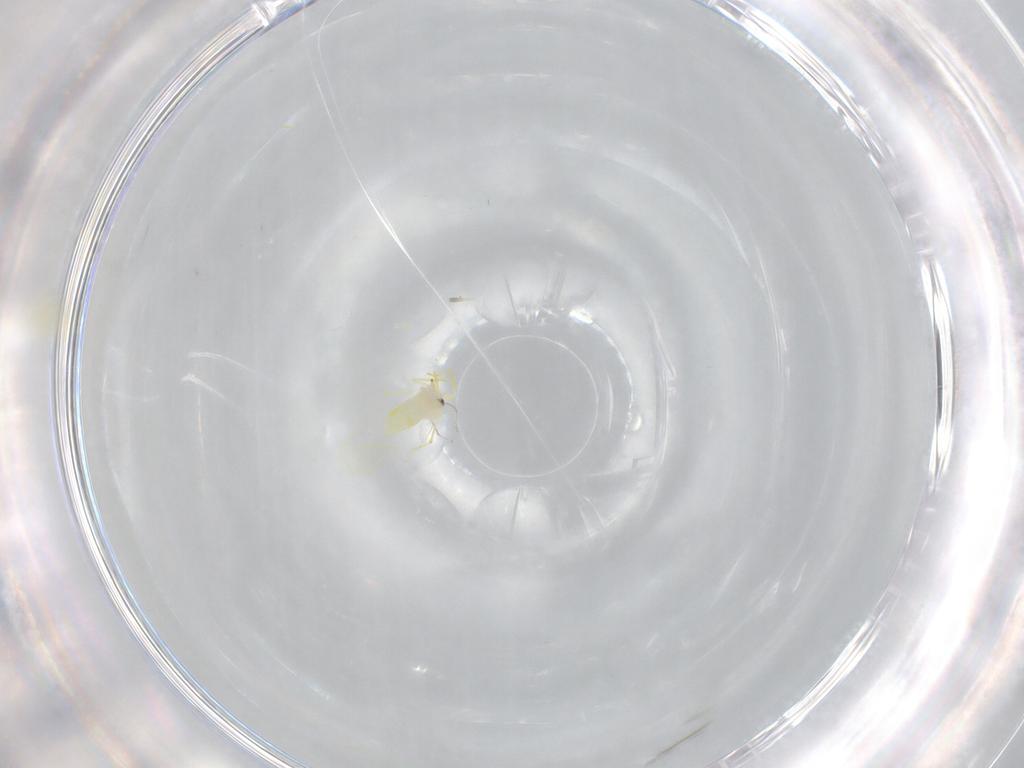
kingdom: Animalia
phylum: Arthropoda
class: Insecta
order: Hemiptera
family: Aleyrodidae
